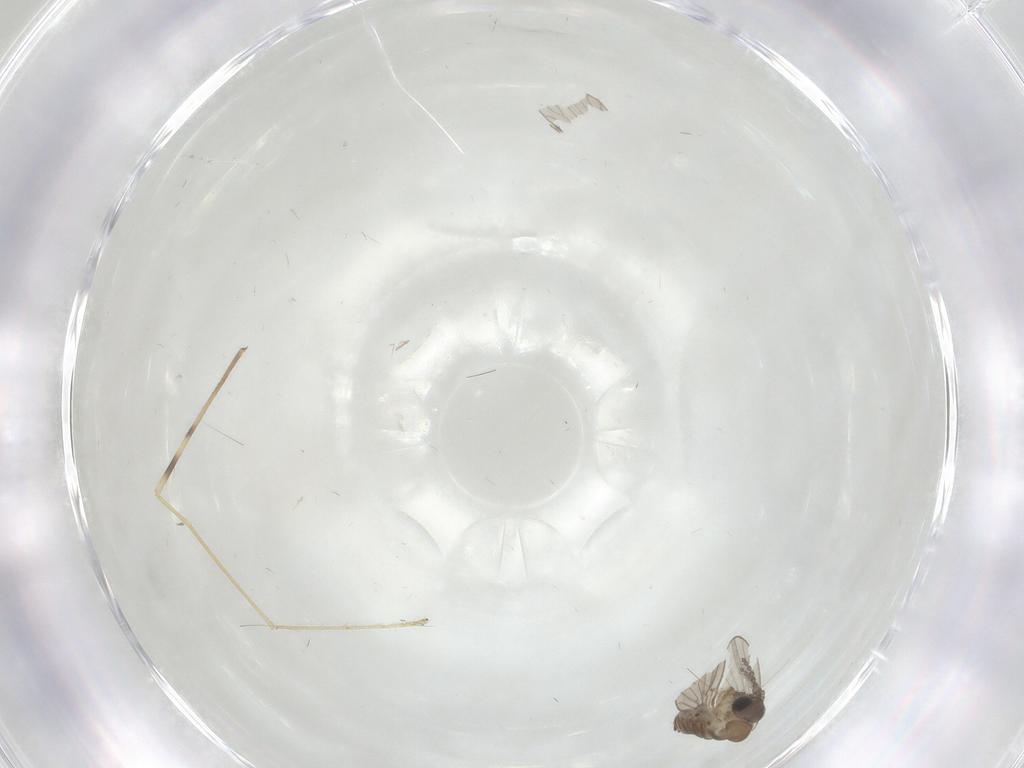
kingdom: Animalia
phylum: Arthropoda
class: Insecta
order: Diptera
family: Limoniidae
